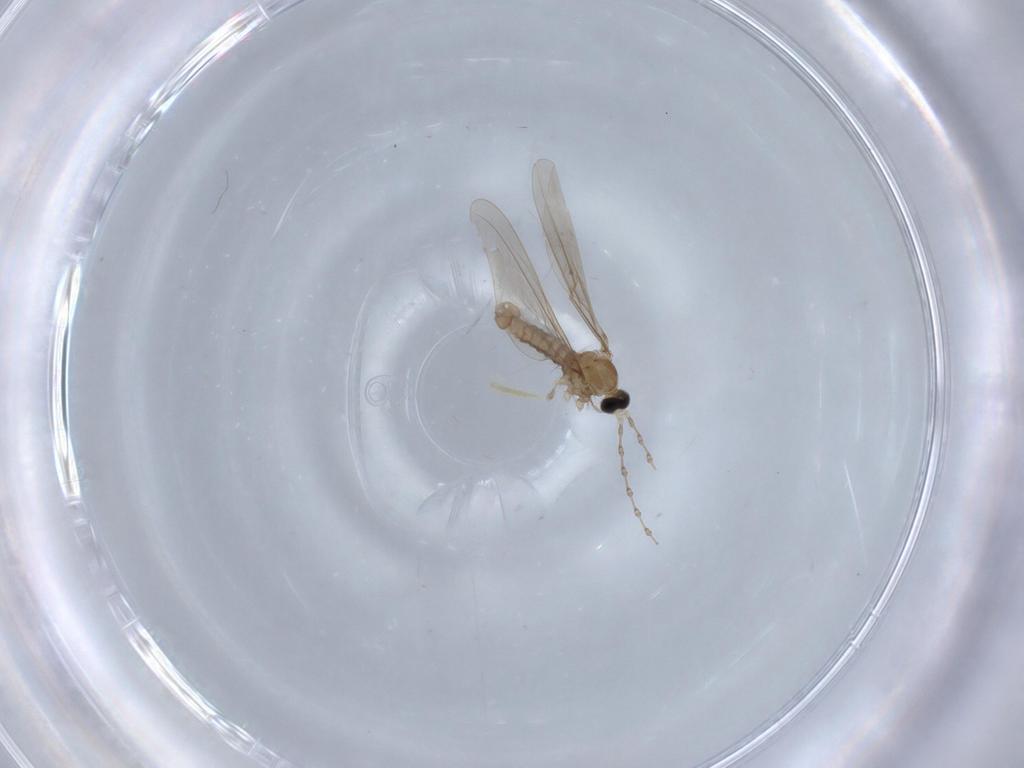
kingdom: Animalia
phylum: Arthropoda
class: Insecta
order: Diptera
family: Cecidomyiidae
